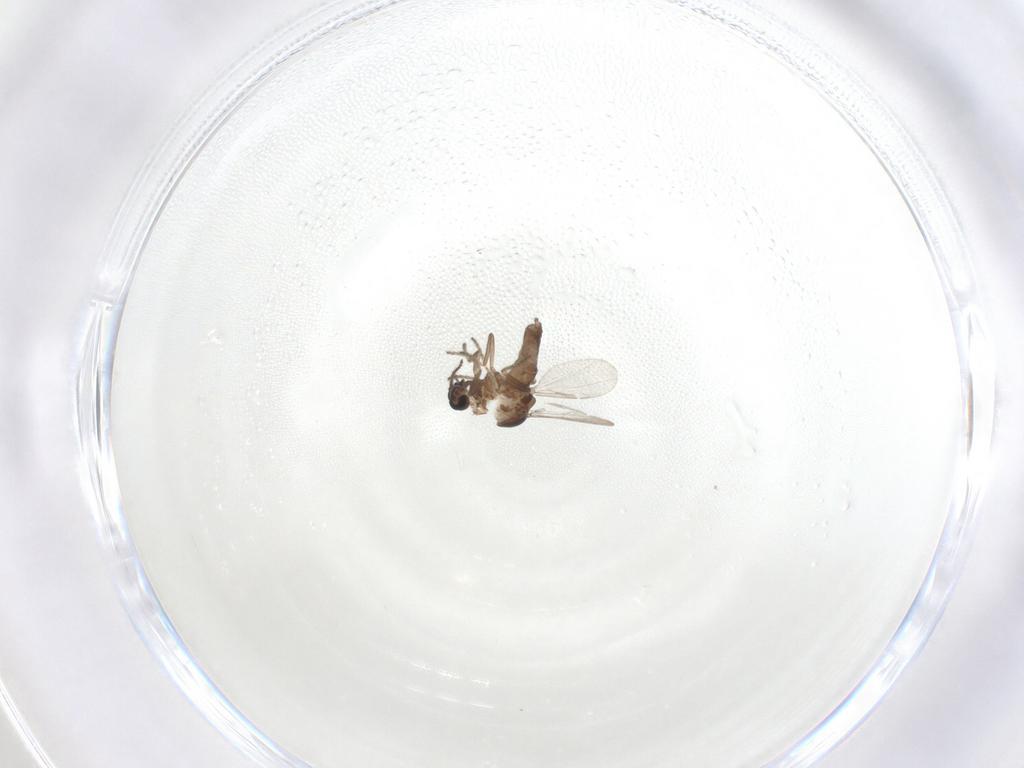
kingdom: Animalia
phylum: Arthropoda
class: Insecta
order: Diptera
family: Ceratopogonidae
